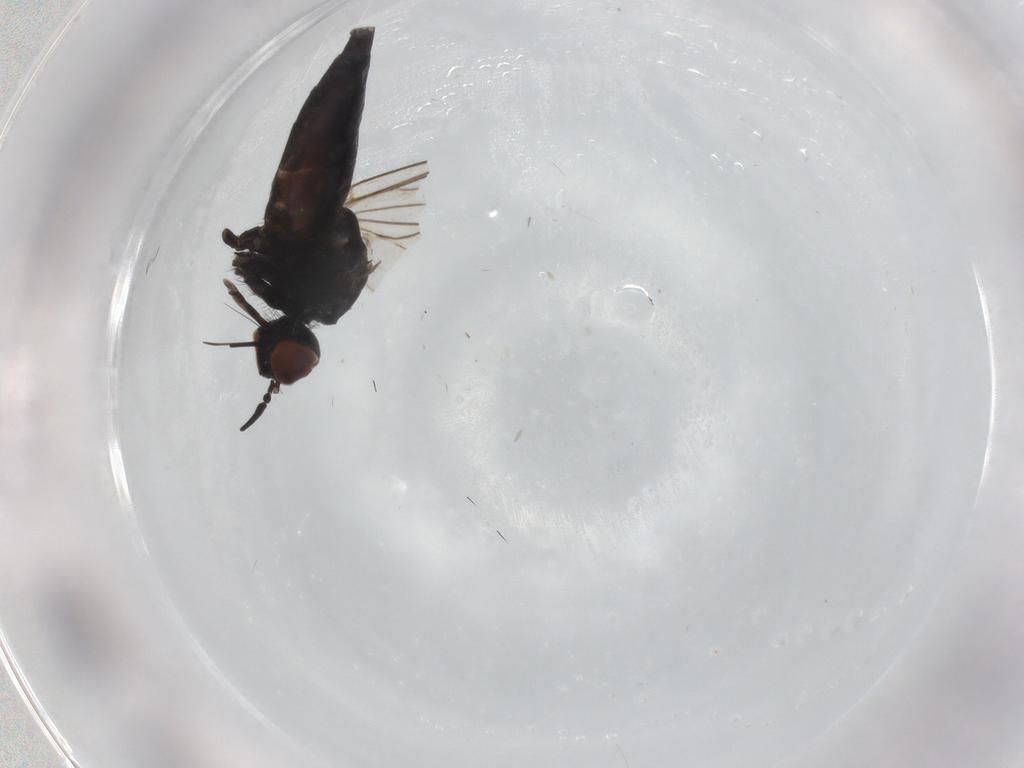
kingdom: Animalia
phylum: Arthropoda
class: Insecta
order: Diptera
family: Empididae
